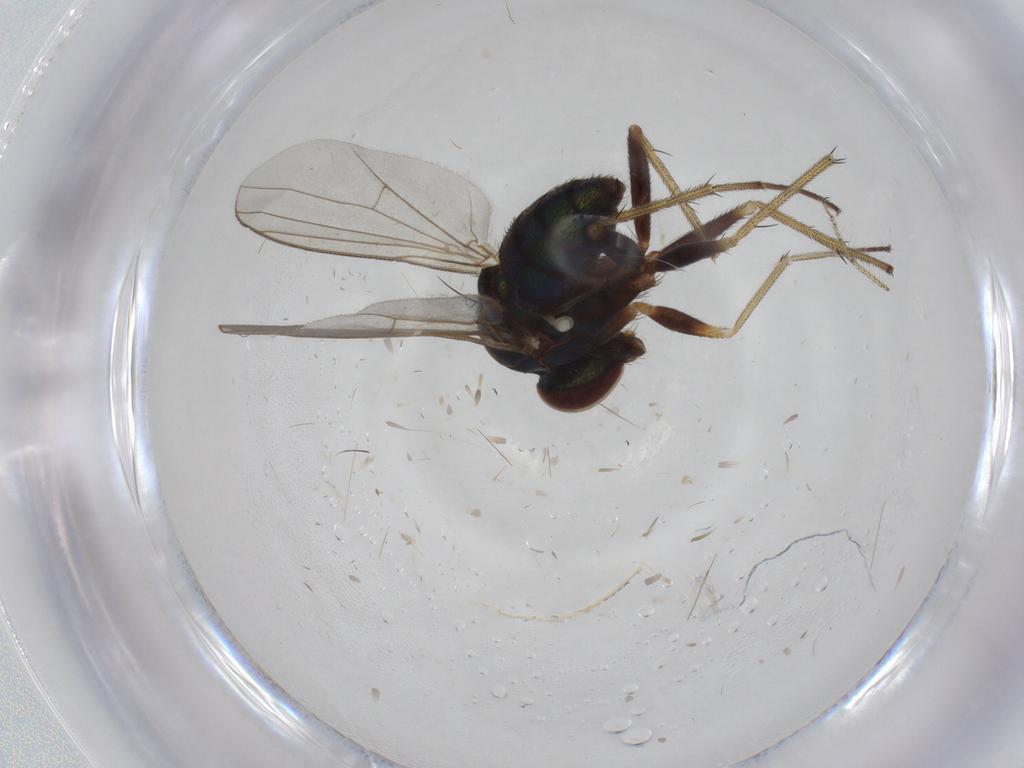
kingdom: Animalia
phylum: Arthropoda
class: Insecta
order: Diptera
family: Dolichopodidae
